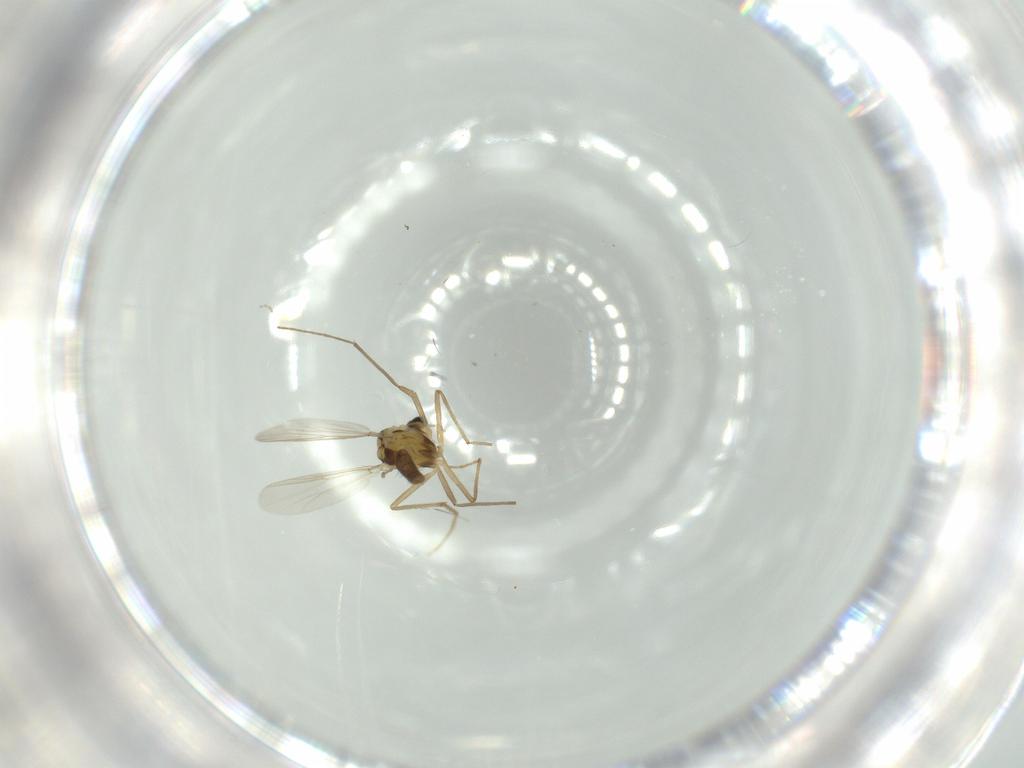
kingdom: Animalia
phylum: Arthropoda
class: Insecta
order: Diptera
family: Chironomidae
